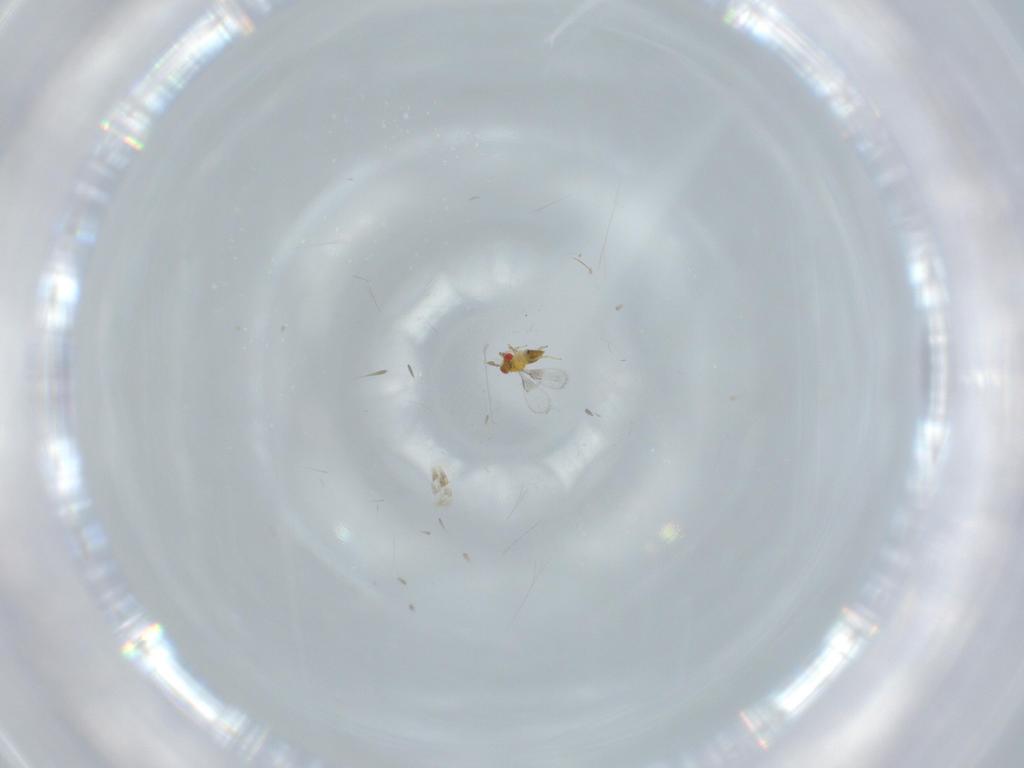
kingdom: Animalia
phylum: Arthropoda
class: Insecta
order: Hymenoptera
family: Trichogrammatidae
